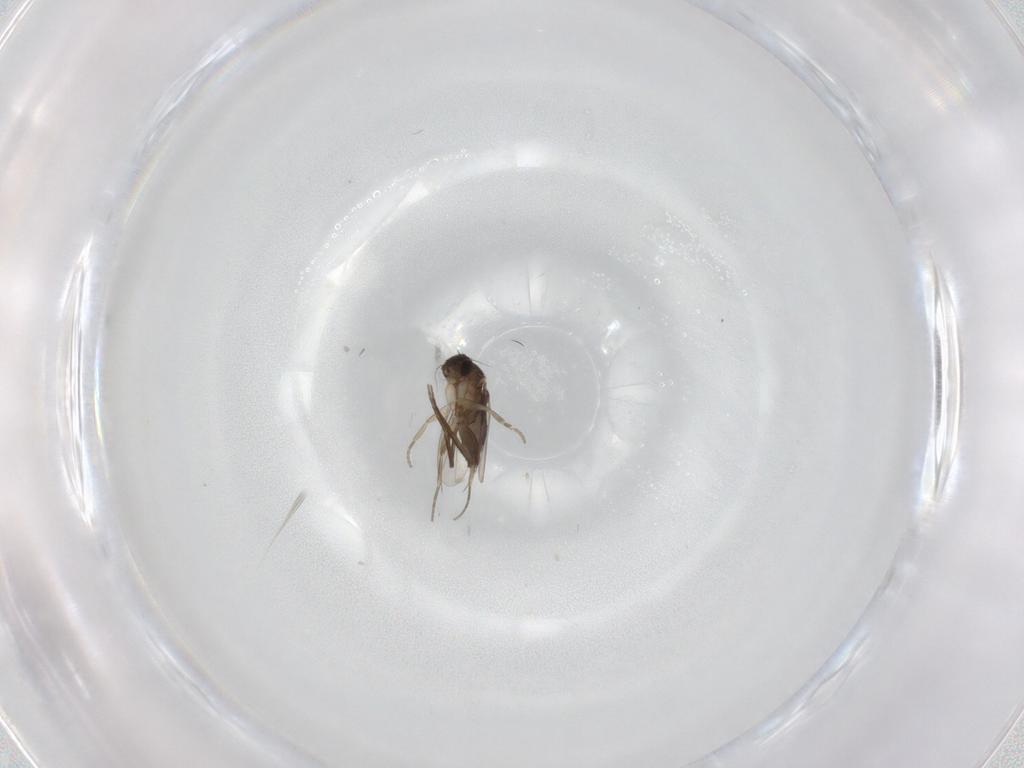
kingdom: Animalia
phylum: Arthropoda
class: Insecta
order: Diptera
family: Phoridae
